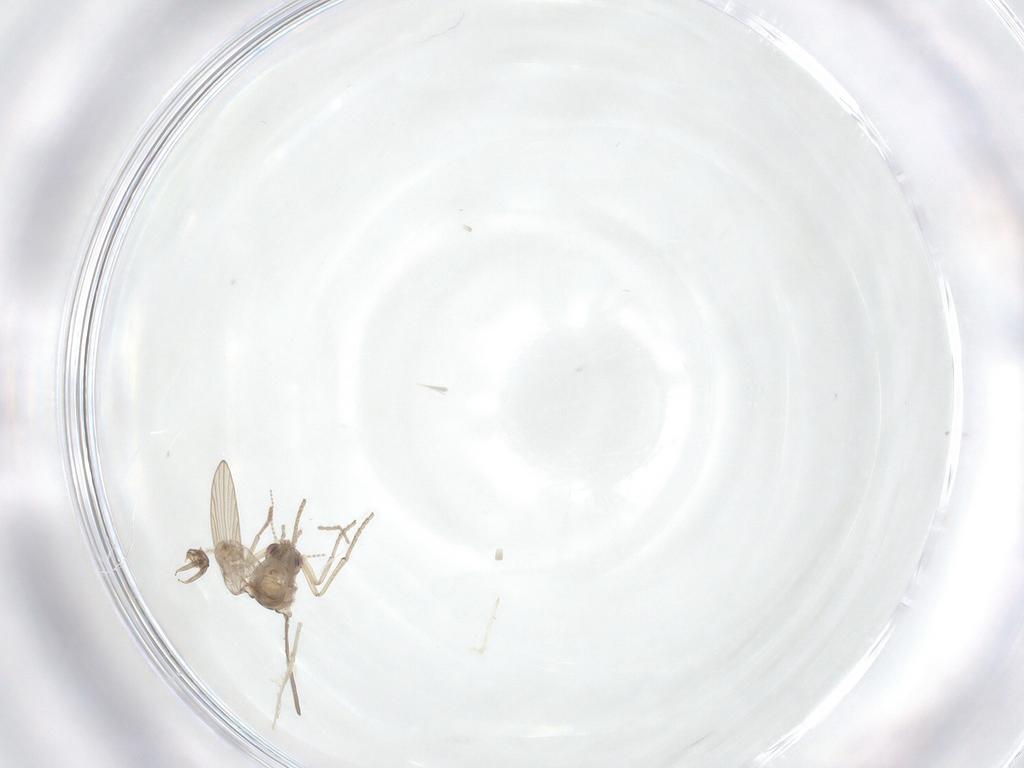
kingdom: Animalia
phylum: Arthropoda
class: Insecta
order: Diptera
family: Psychodidae
